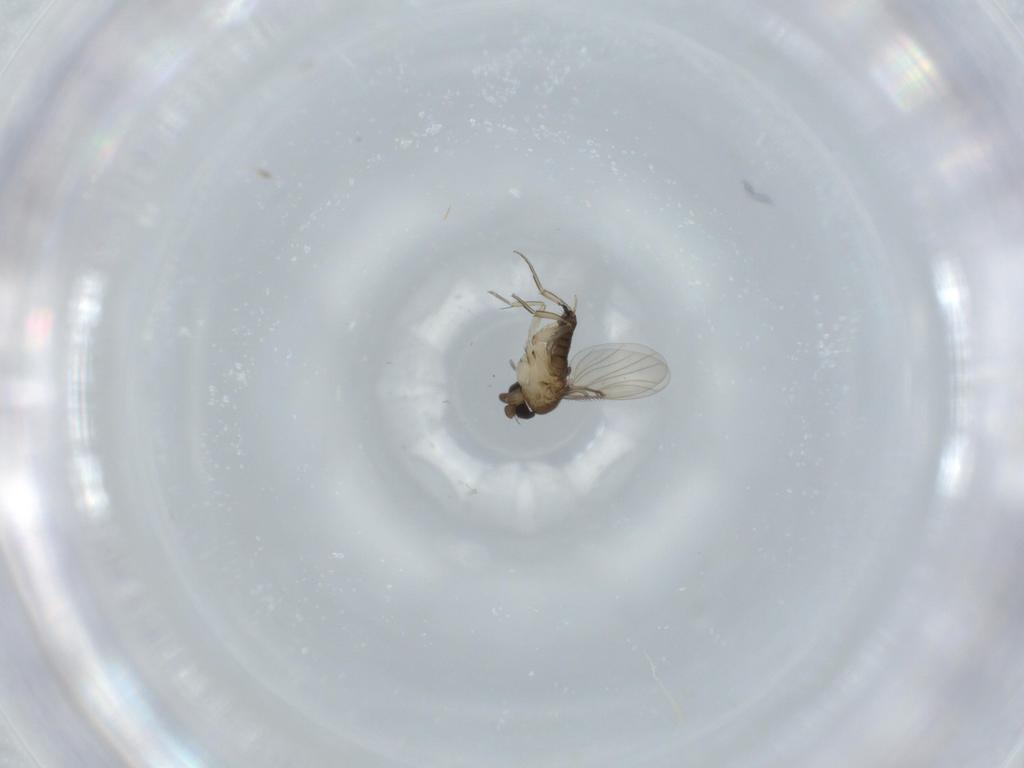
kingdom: Animalia
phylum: Arthropoda
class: Insecta
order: Diptera
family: Phoridae
